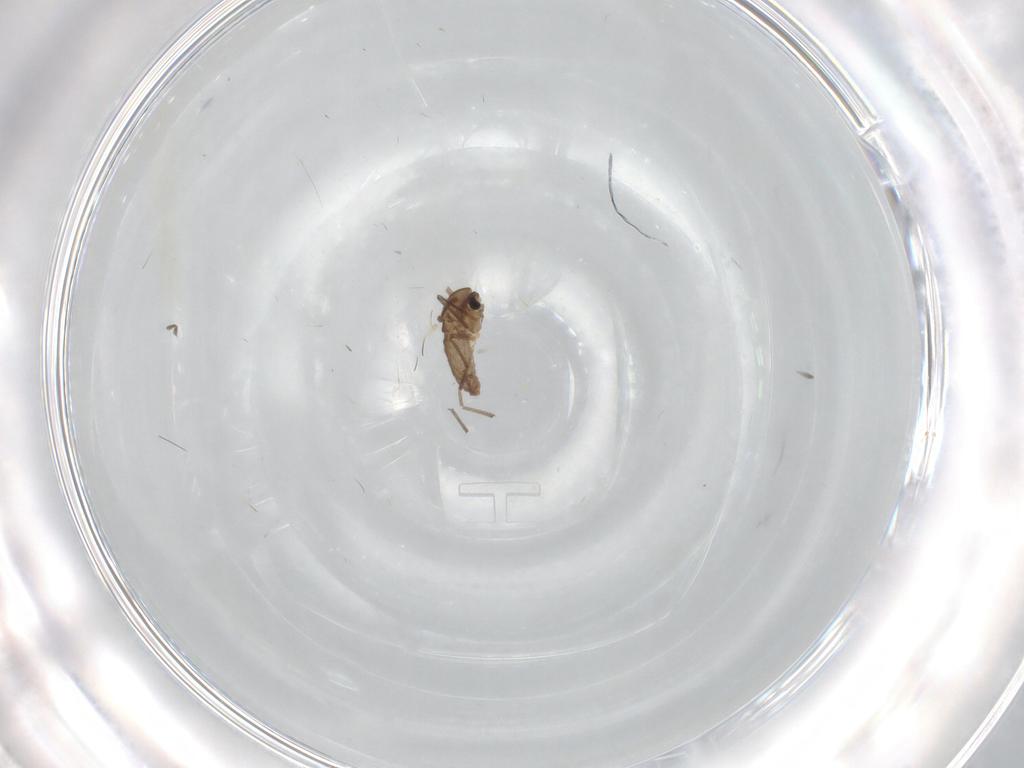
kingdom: Animalia
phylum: Arthropoda
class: Insecta
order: Diptera
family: Chironomidae
